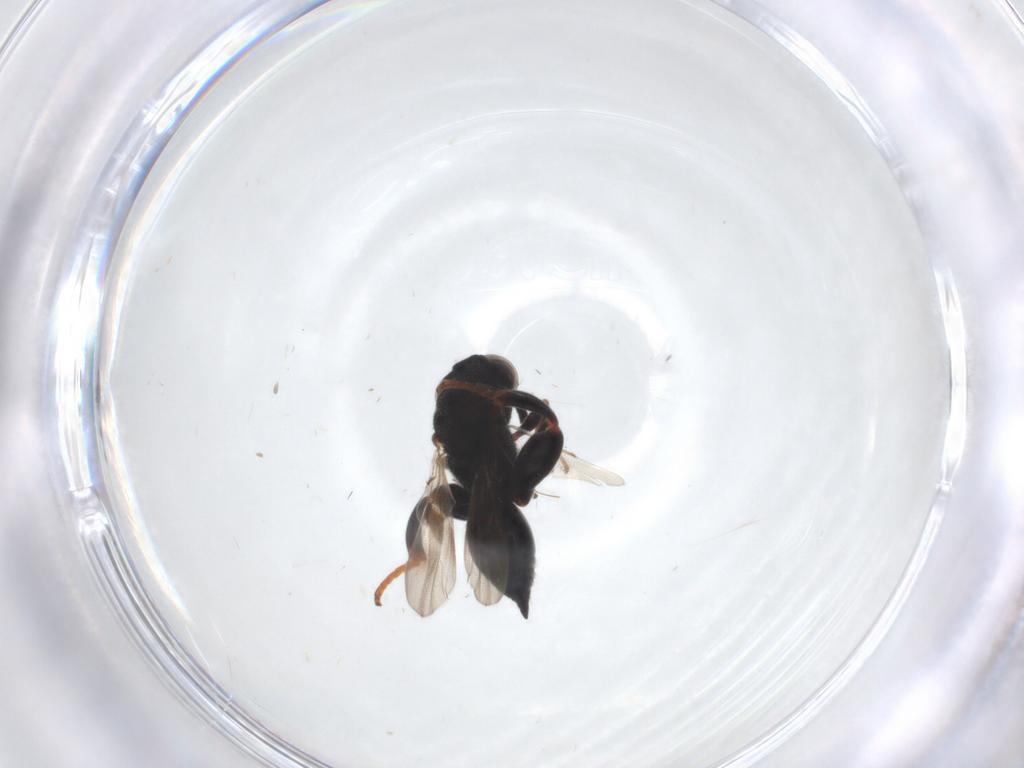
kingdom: Animalia
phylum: Arthropoda
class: Insecta
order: Hymenoptera
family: Chalcididae
